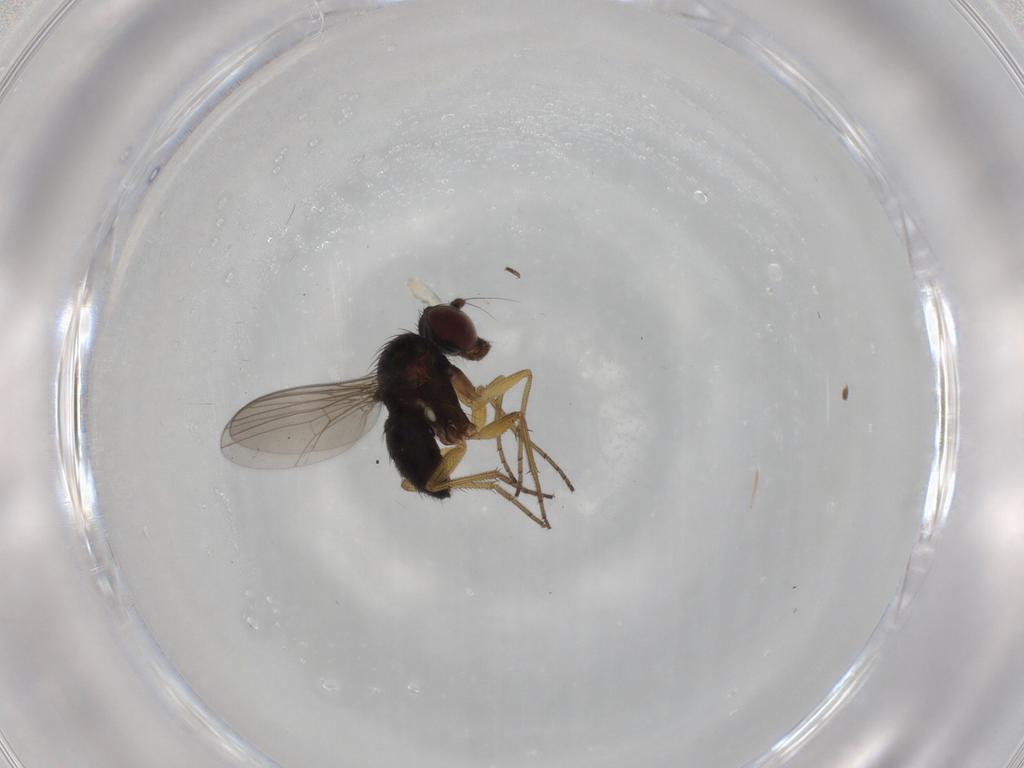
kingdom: Animalia
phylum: Arthropoda
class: Insecta
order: Diptera
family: Dolichopodidae
